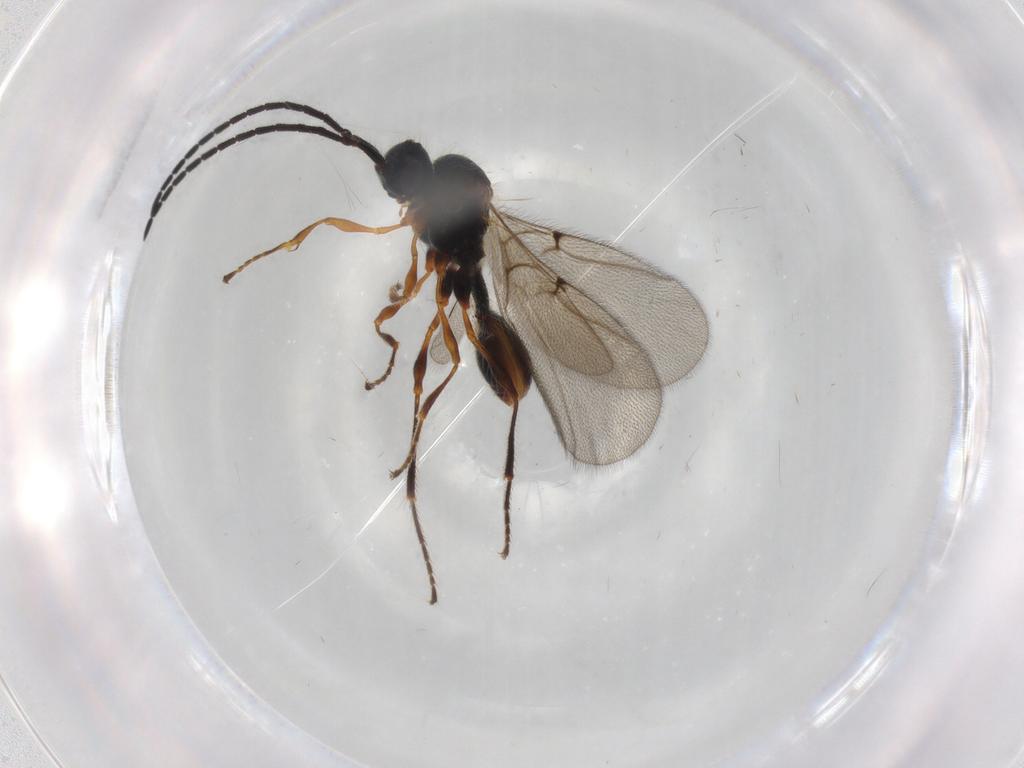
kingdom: Animalia
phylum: Arthropoda
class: Insecta
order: Hymenoptera
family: Diapriidae
